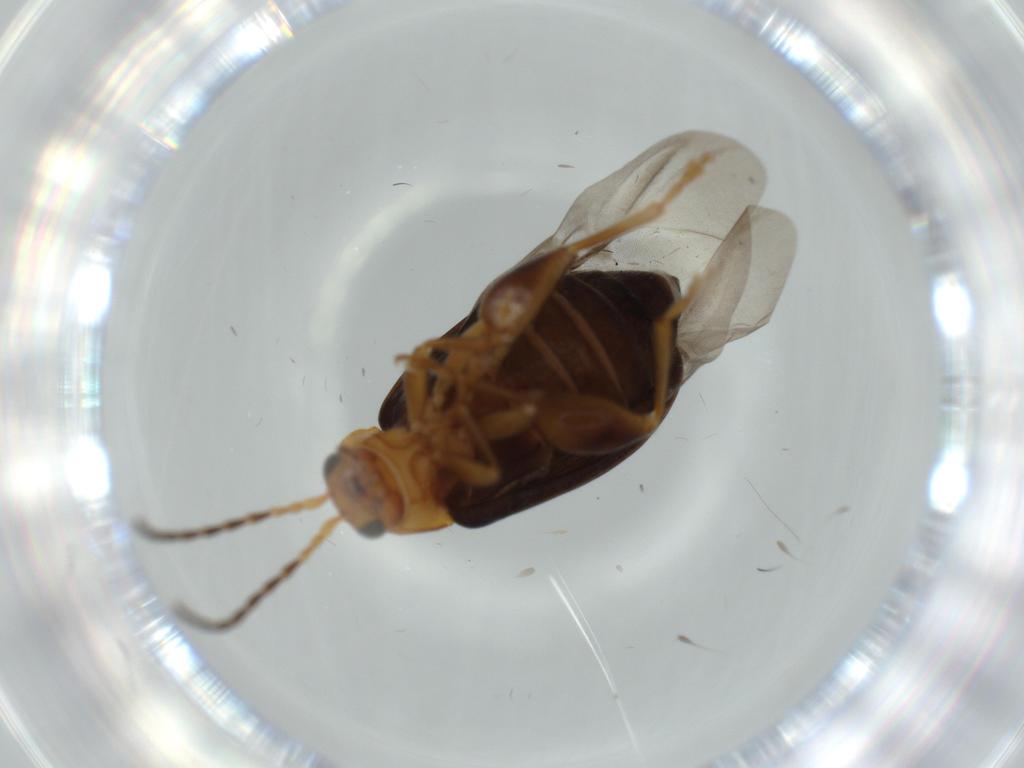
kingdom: Animalia
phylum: Arthropoda
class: Insecta
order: Coleoptera
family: Chrysomelidae
